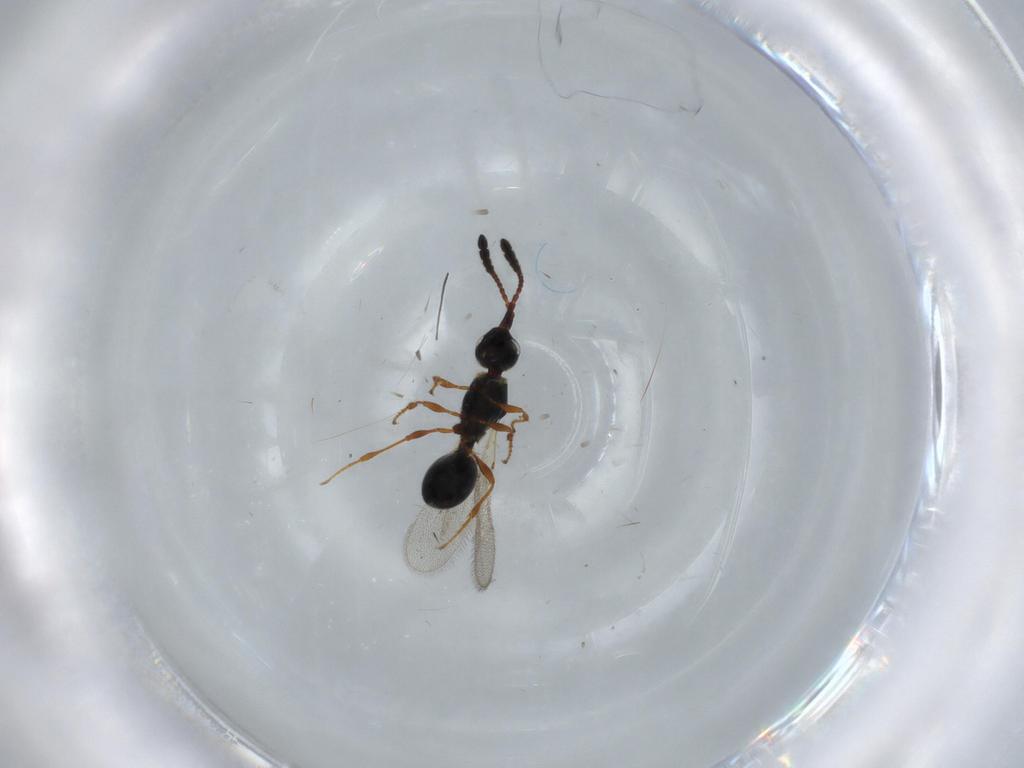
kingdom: Animalia
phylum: Arthropoda
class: Insecta
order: Hymenoptera
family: Diapriidae
